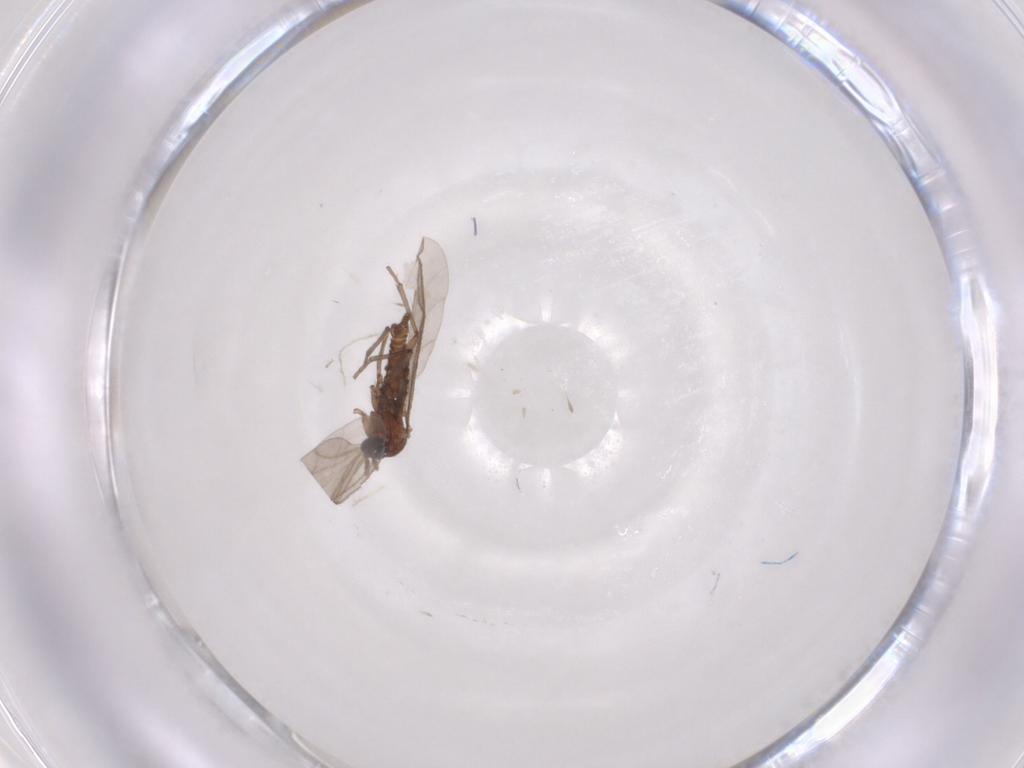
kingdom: Animalia
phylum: Arthropoda
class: Insecta
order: Diptera
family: Sciaridae
